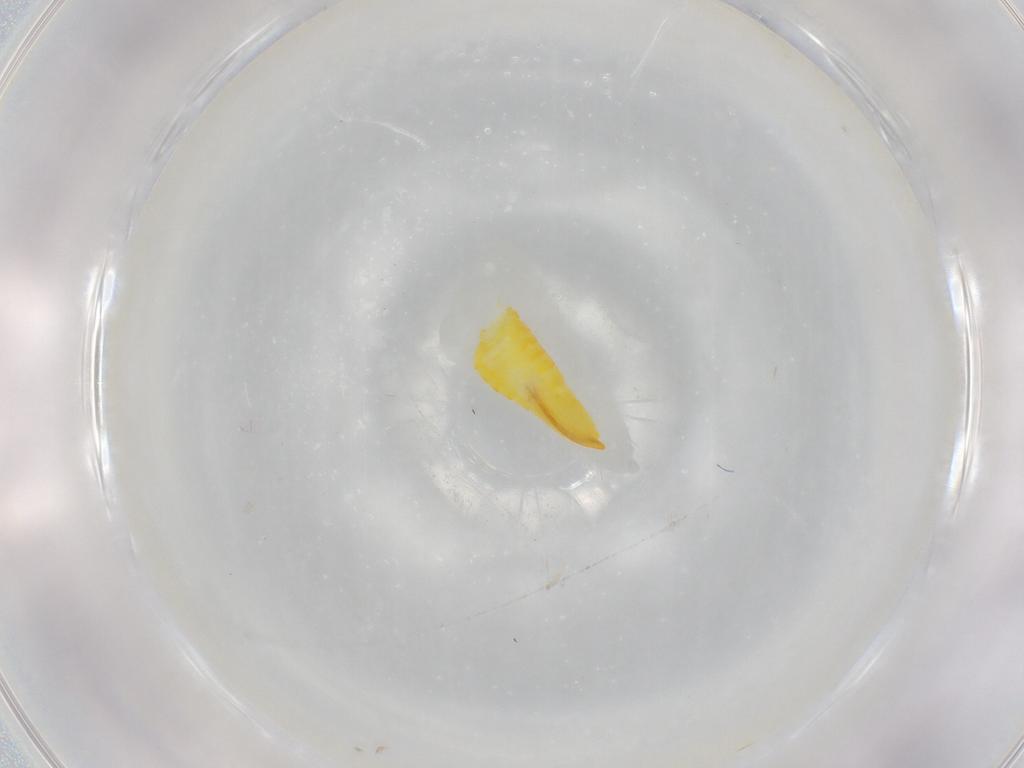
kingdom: Animalia
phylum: Arthropoda
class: Insecta
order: Hemiptera
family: Cicadellidae
